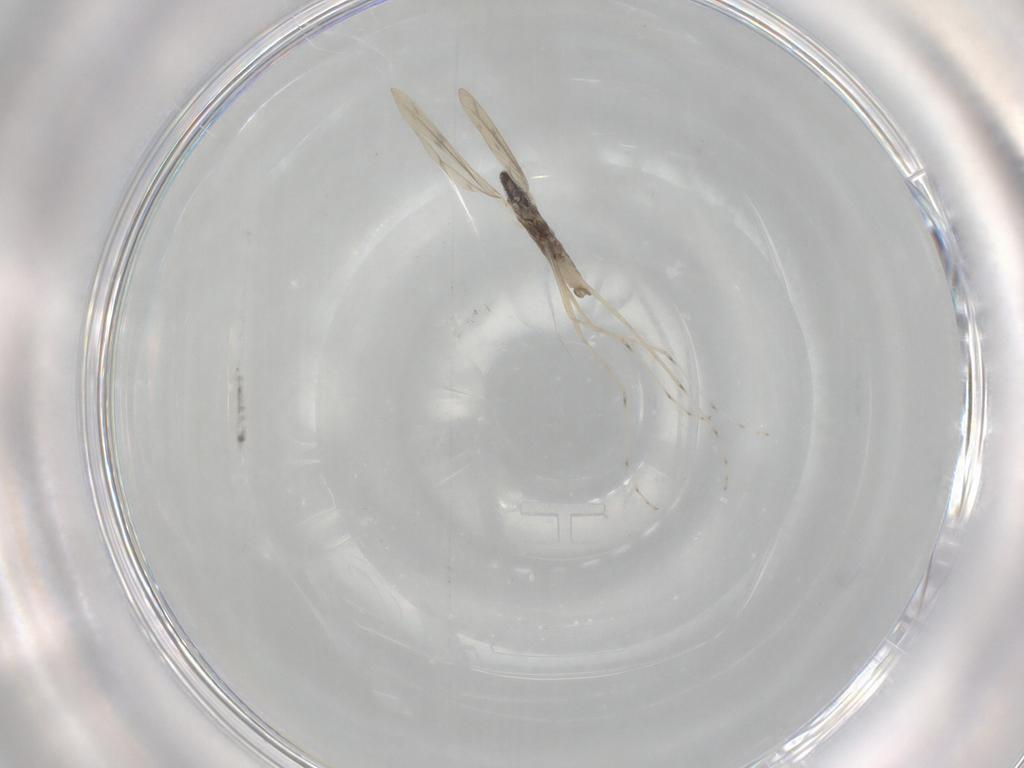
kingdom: Animalia
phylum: Arthropoda
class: Insecta
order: Diptera
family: Cecidomyiidae
